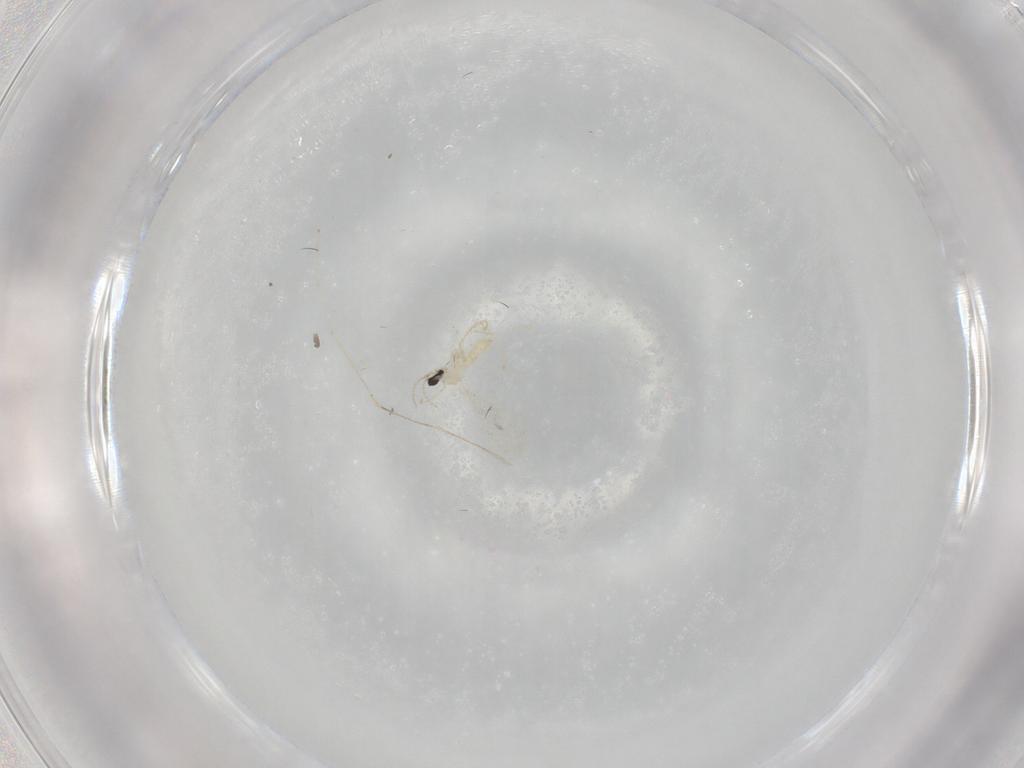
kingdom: Animalia
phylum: Arthropoda
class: Insecta
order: Diptera
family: Cecidomyiidae
